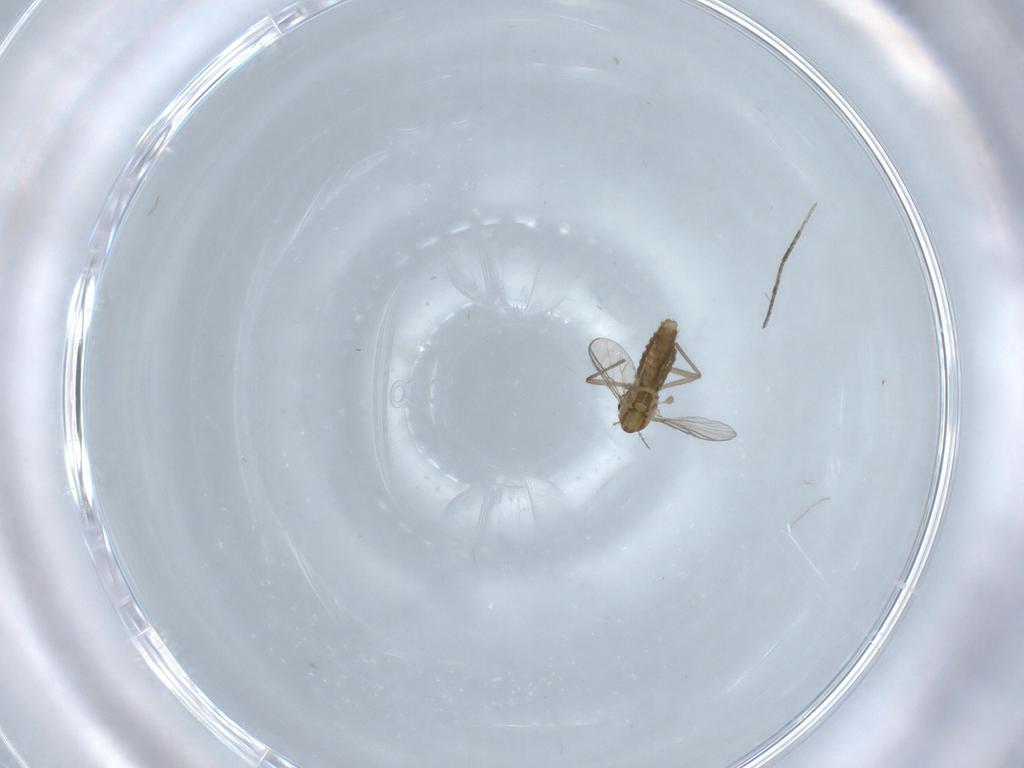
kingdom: Animalia
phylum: Arthropoda
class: Insecta
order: Diptera
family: Chironomidae
